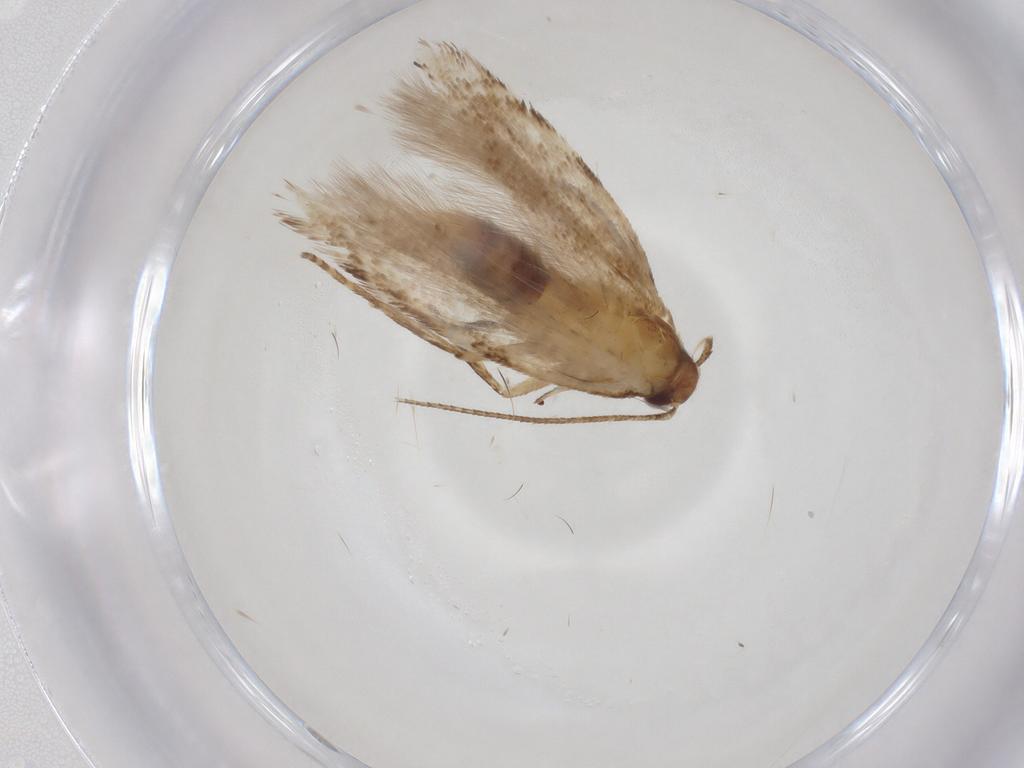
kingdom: Animalia
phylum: Arthropoda
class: Insecta
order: Lepidoptera
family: Gelechiidae
